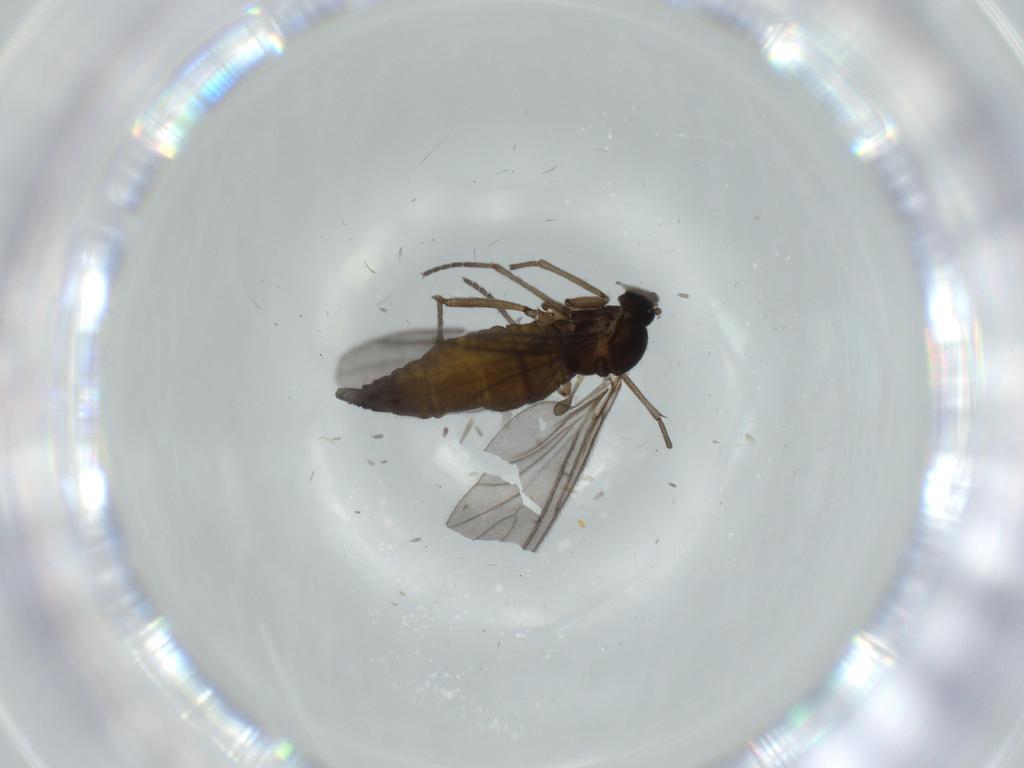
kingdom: Animalia
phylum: Arthropoda
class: Insecta
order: Diptera
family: Sciaridae
